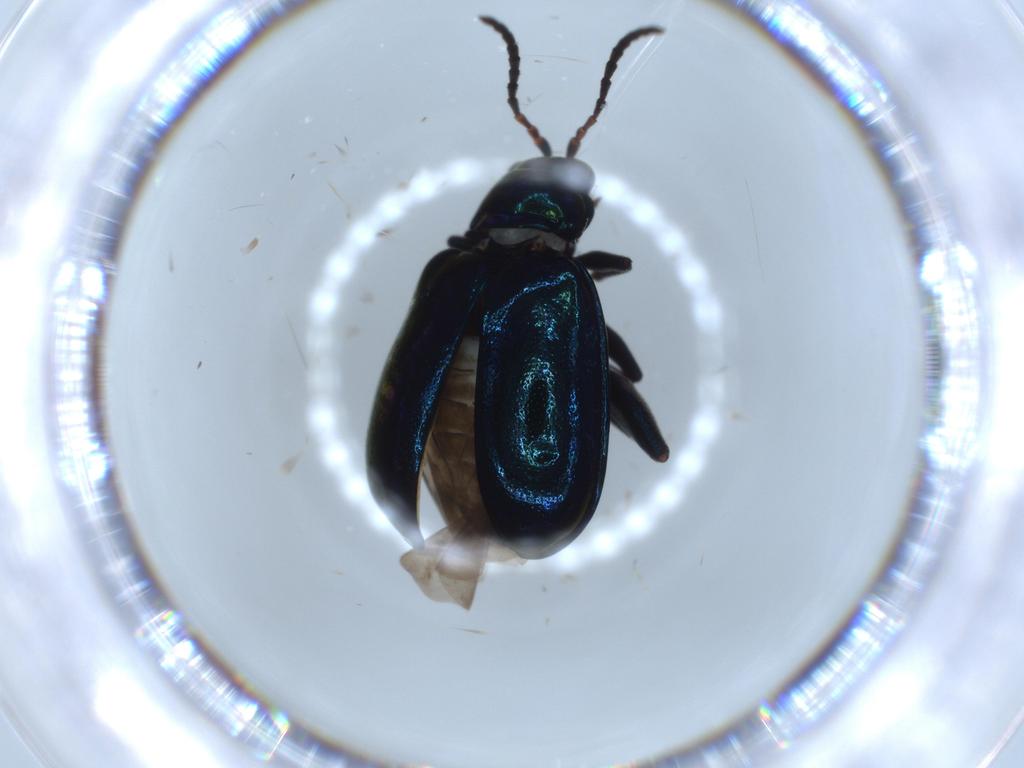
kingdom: Animalia
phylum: Arthropoda
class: Insecta
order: Coleoptera
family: Chrysomelidae
